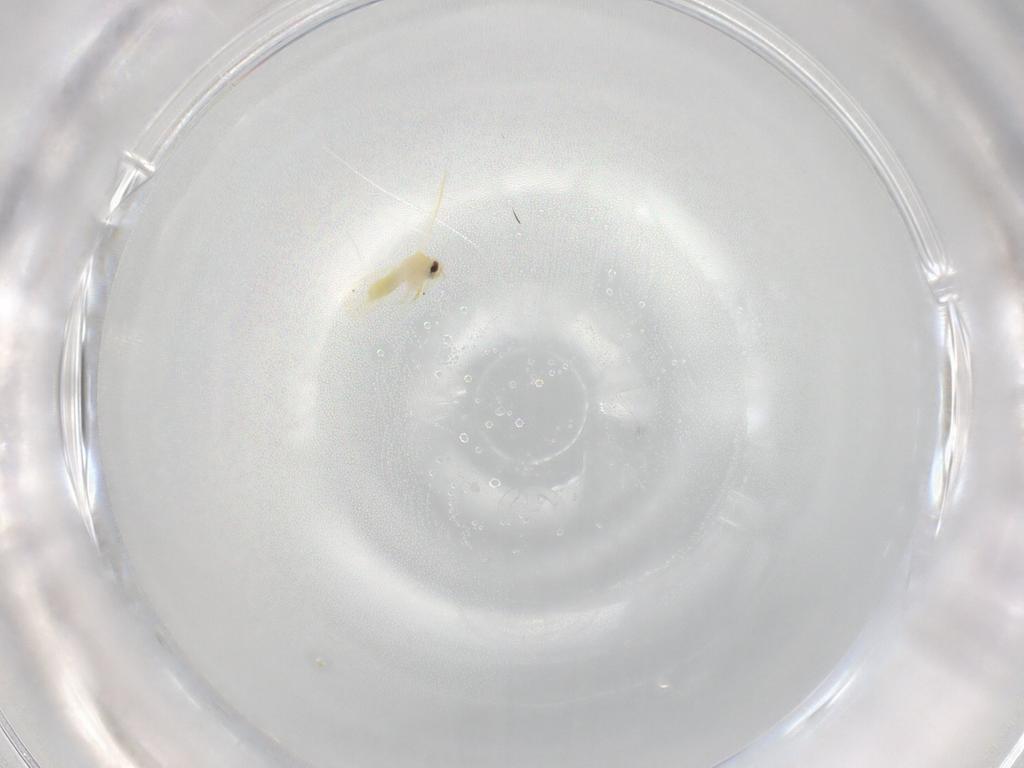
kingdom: Animalia
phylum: Arthropoda
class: Insecta
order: Hemiptera
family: Aleyrodidae
